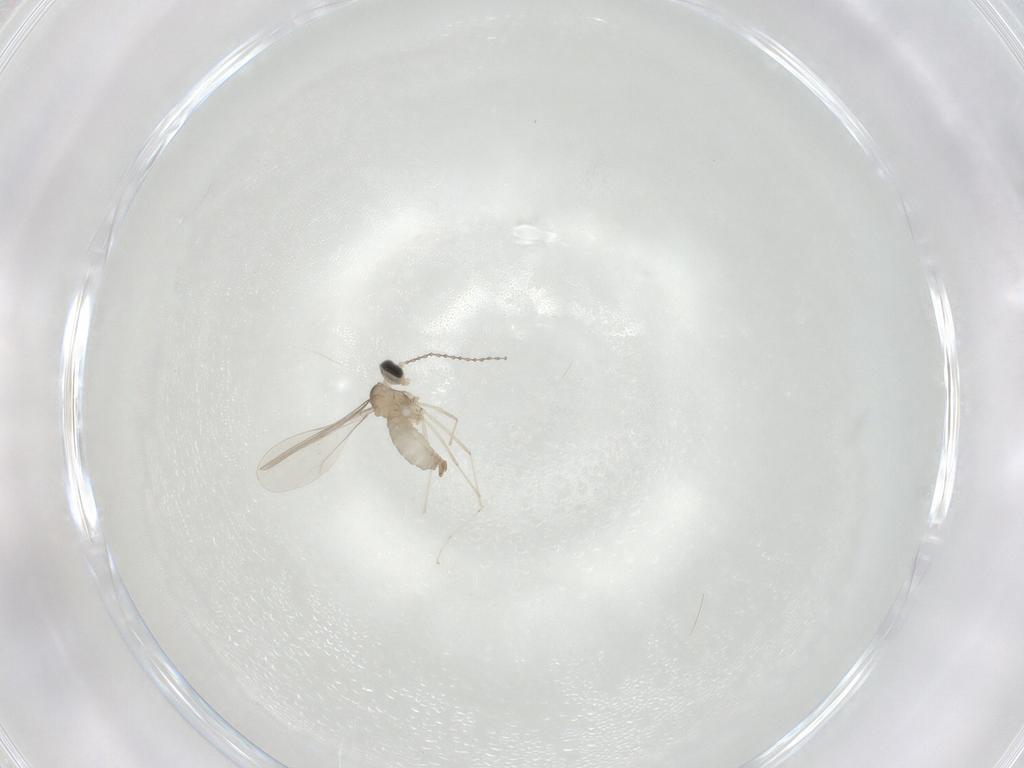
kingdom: Animalia
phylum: Arthropoda
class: Insecta
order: Diptera
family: Cecidomyiidae
